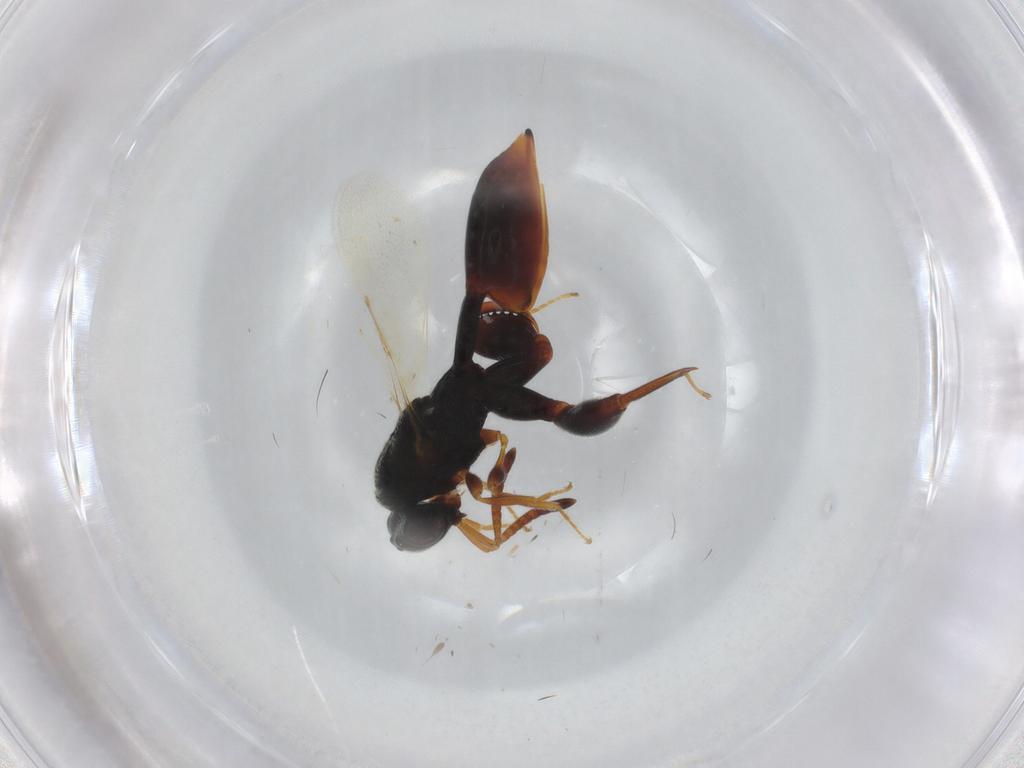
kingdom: Animalia
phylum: Arthropoda
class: Insecta
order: Hymenoptera
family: Chalcididae
